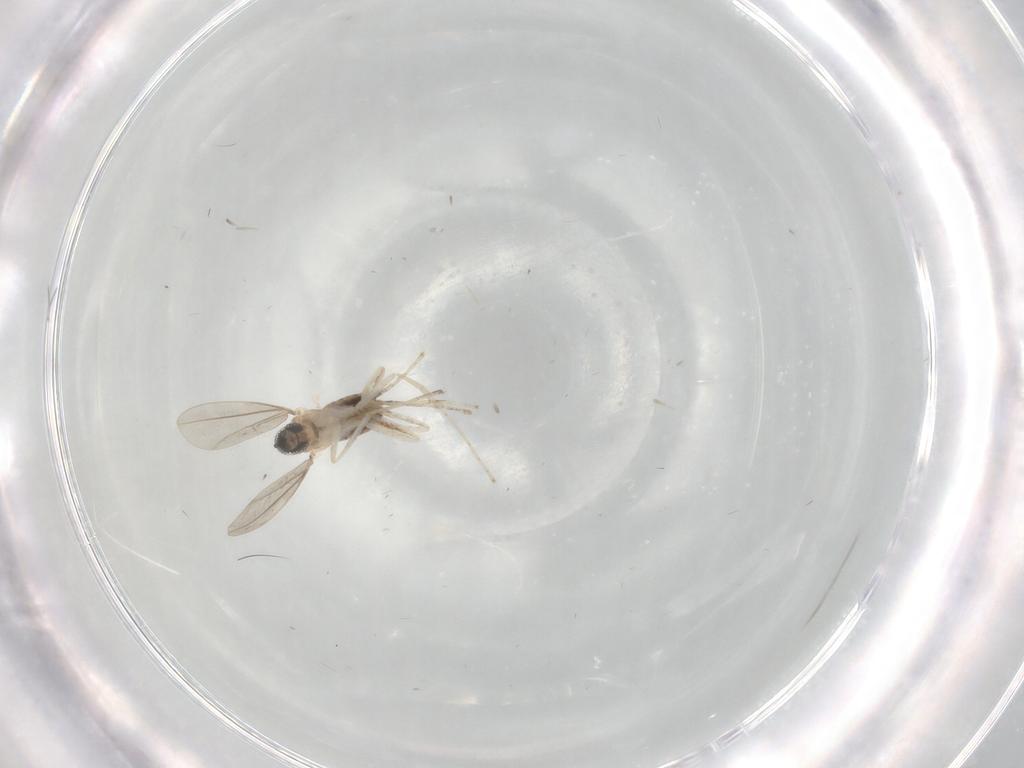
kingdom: Animalia
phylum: Arthropoda
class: Insecta
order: Diptera
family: Cecidomyiidae
